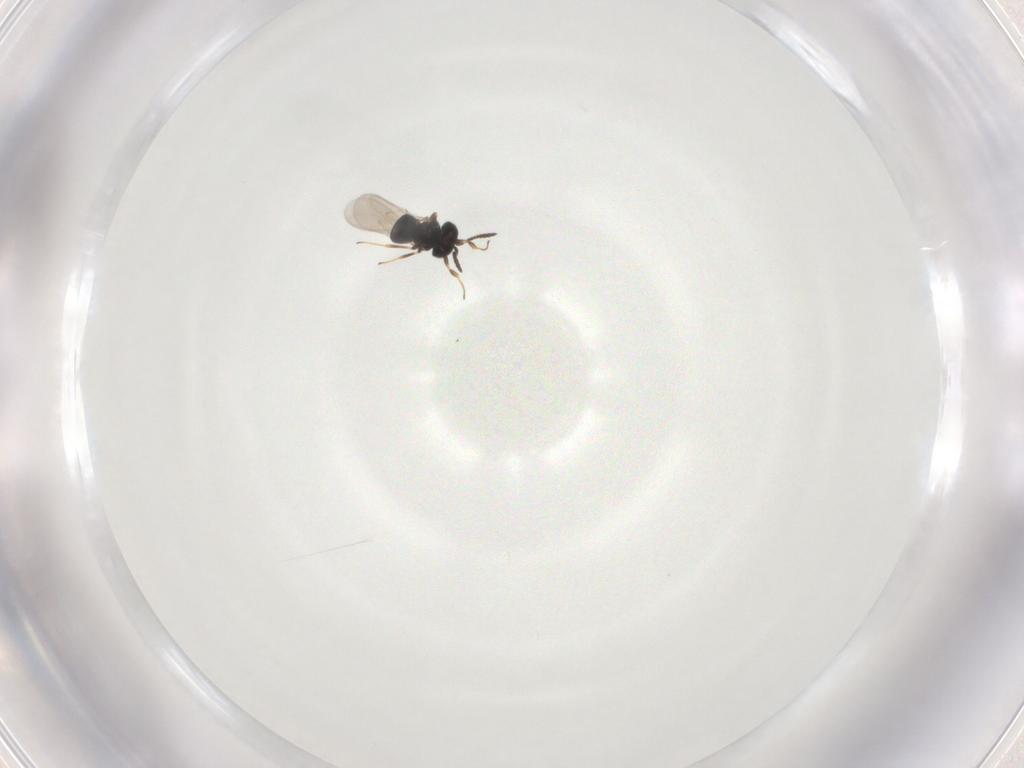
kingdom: Animalia
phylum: Arthropoda
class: Insecta
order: Hymenoptera
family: Scelionidae
